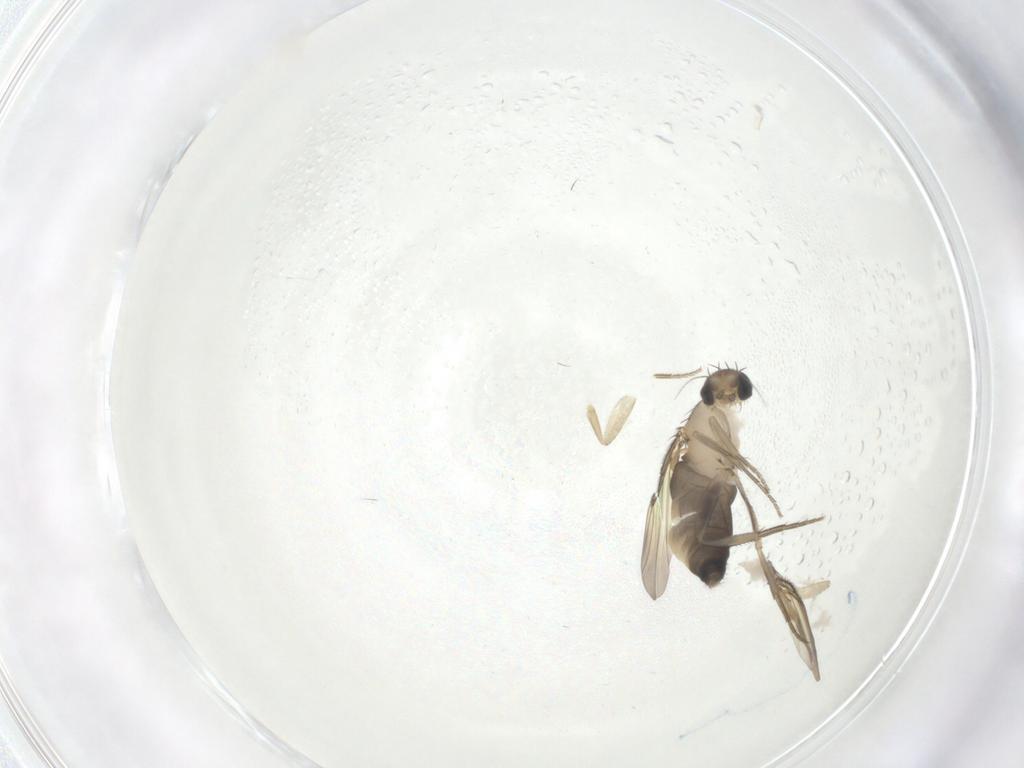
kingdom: Animalia
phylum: Arthropoda
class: Insecta
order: Diptera
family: Phoridae
